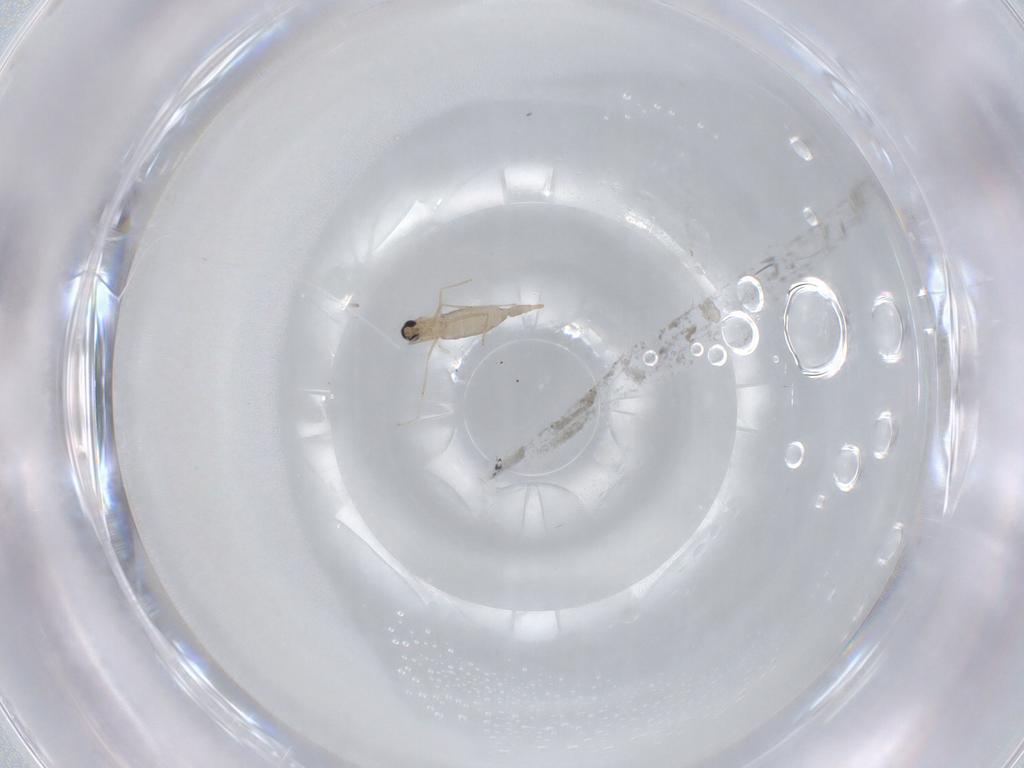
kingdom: Animalia
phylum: Arthropoda
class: Insecta
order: Diptera
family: Cecidomyiidae
